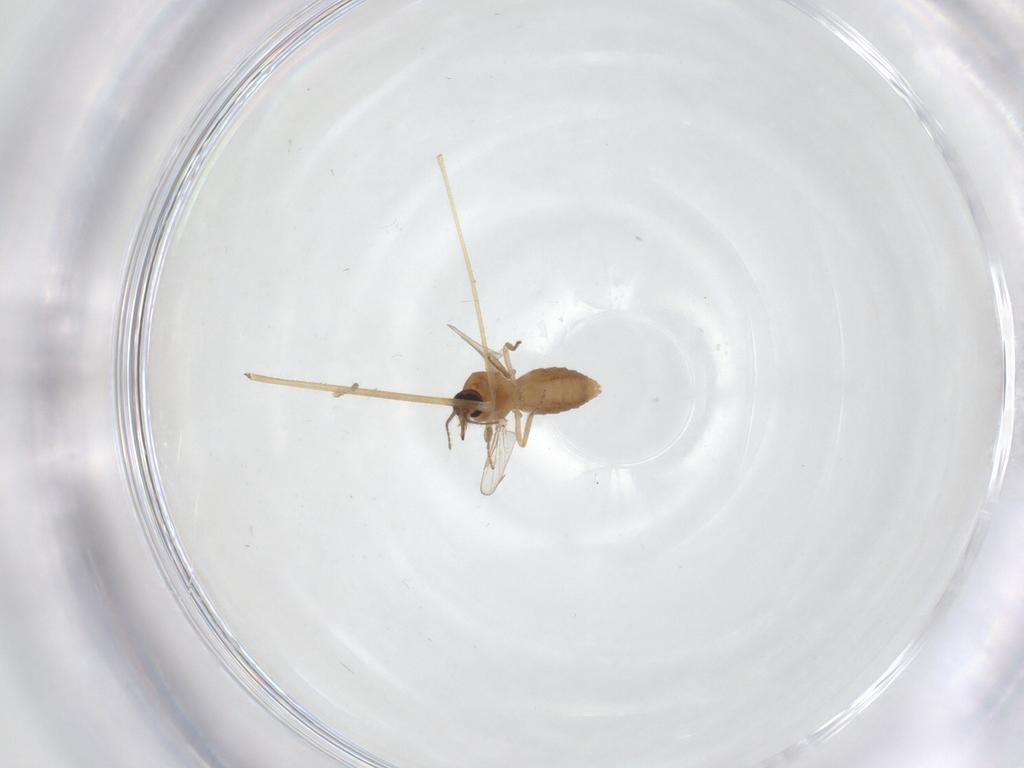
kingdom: Animalia
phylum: Arthropoda
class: Insecta
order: Diptera
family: Ceratopogonidae
